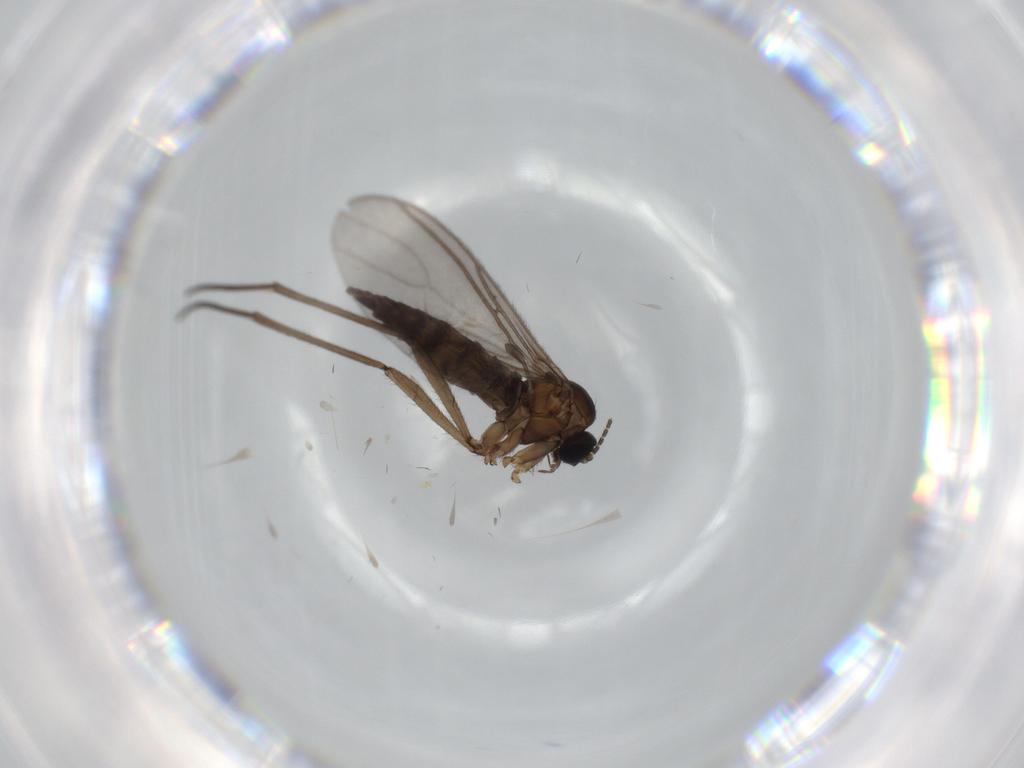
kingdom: Animalia
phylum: Arthropoda
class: Insecta
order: Diptera
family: Sciaridae
